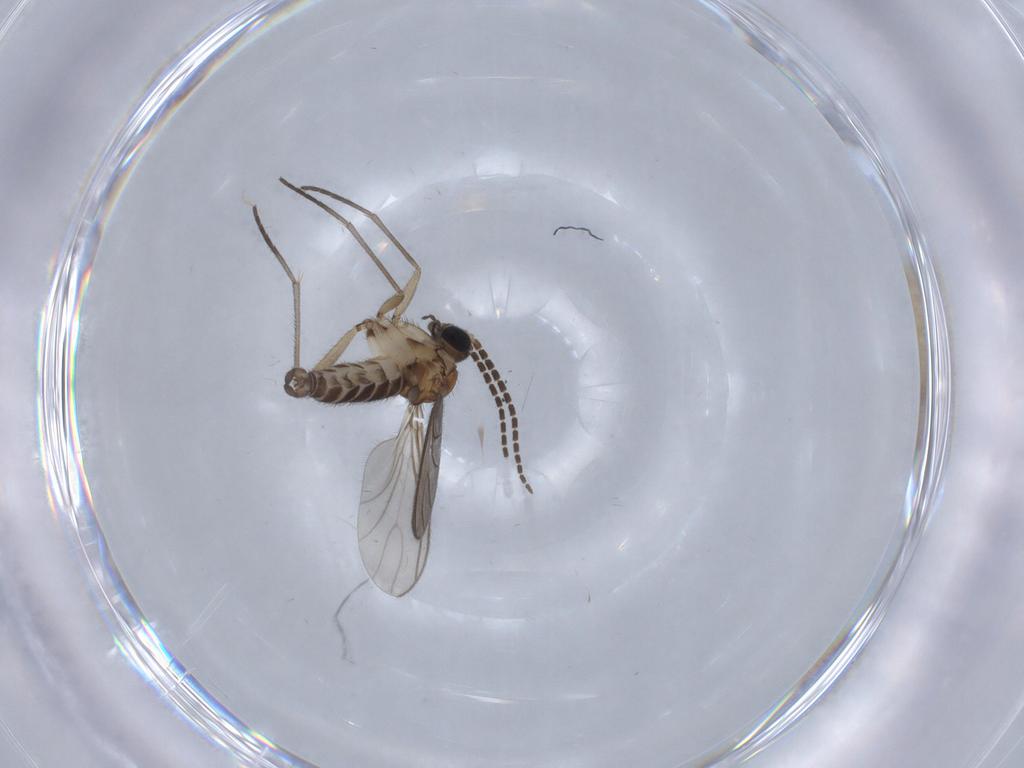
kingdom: Animalia
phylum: Arthropoda
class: Insecta
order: Diptera
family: Sciaridae
